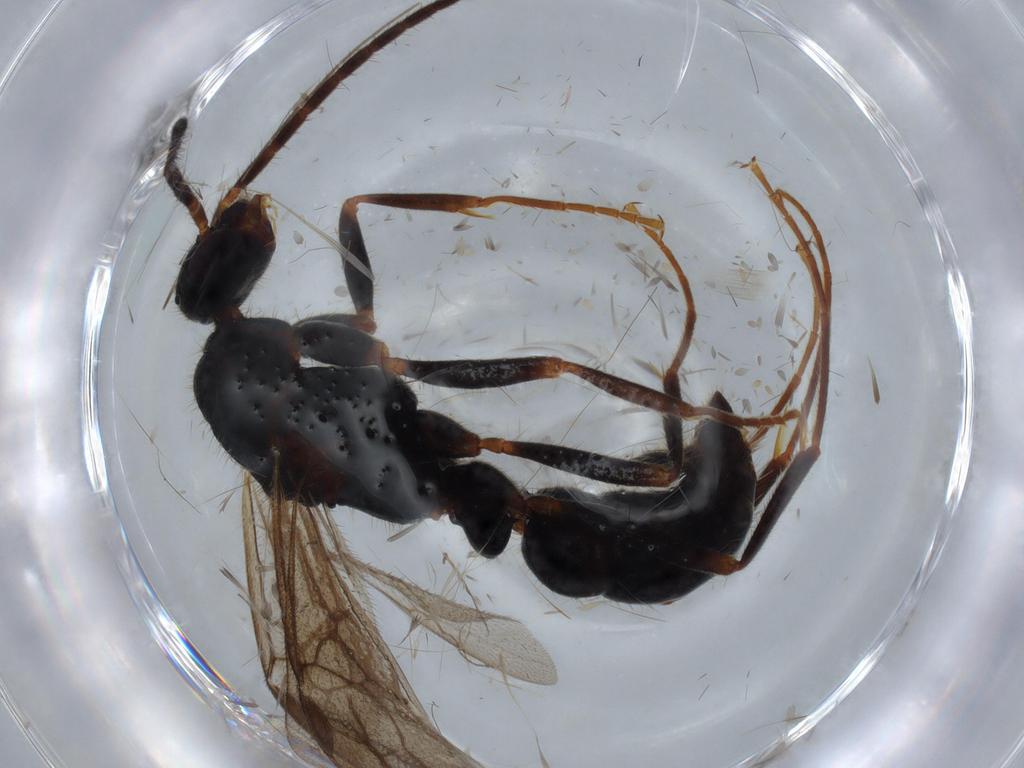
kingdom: Animalia
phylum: Arthropoda
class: Insecta
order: Hymenoptera
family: Formicidae
